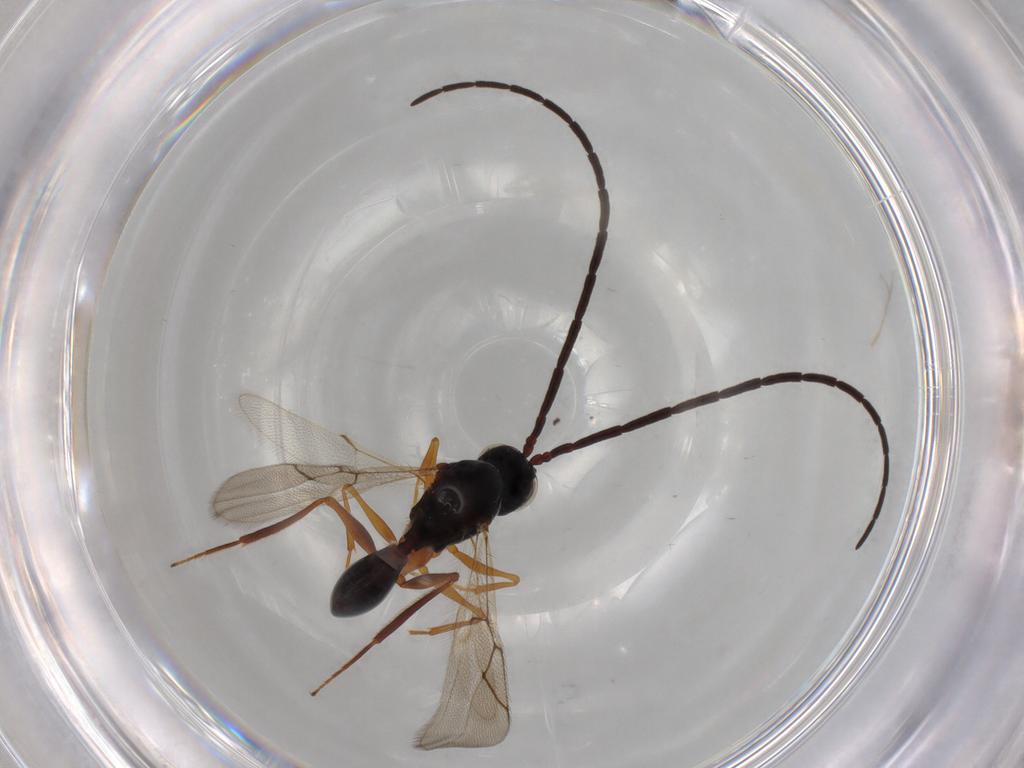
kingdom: Animalia
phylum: Arthropoda
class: Insecta
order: Hymenoptera
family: Figitidae
